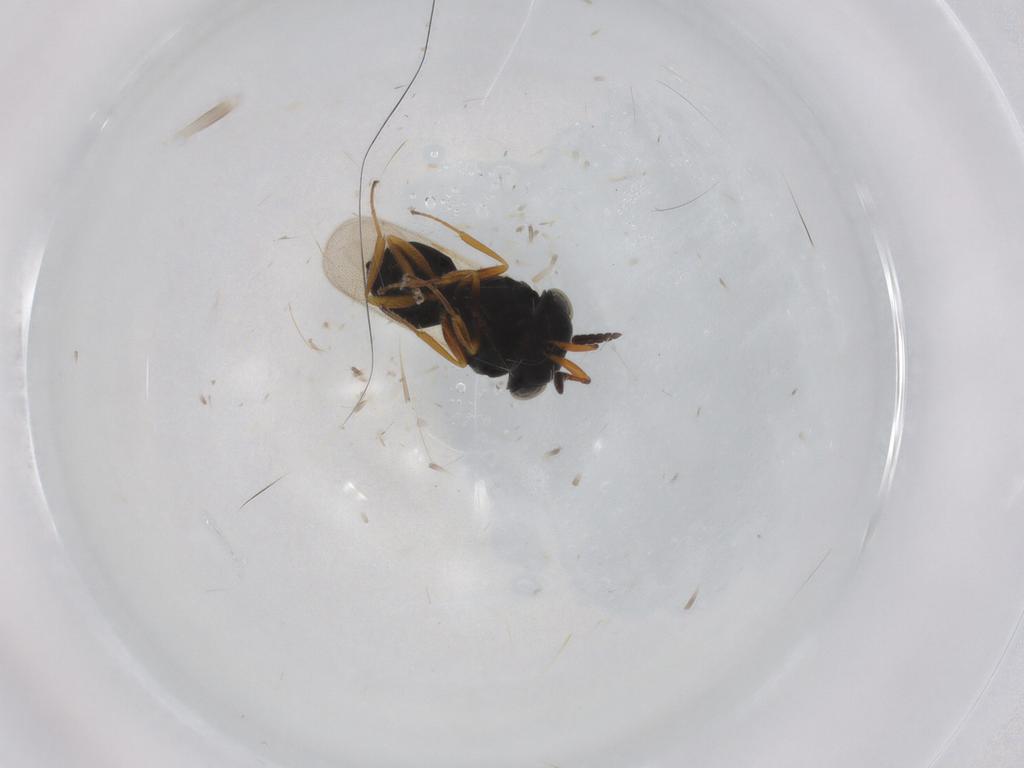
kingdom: Animalia
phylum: Arthropoda
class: Insecta
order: Hymenoptera
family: Scelionidae
